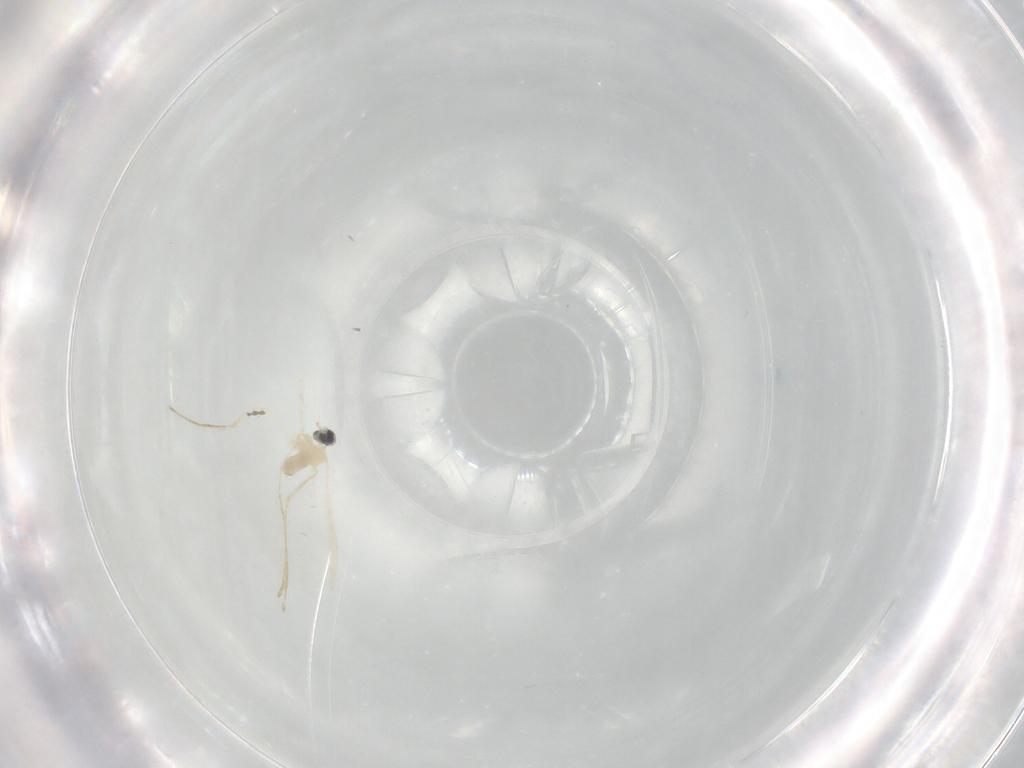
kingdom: Animalia
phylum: Arthropoda
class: Insecta
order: Diptera
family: Cecidomyiidae
